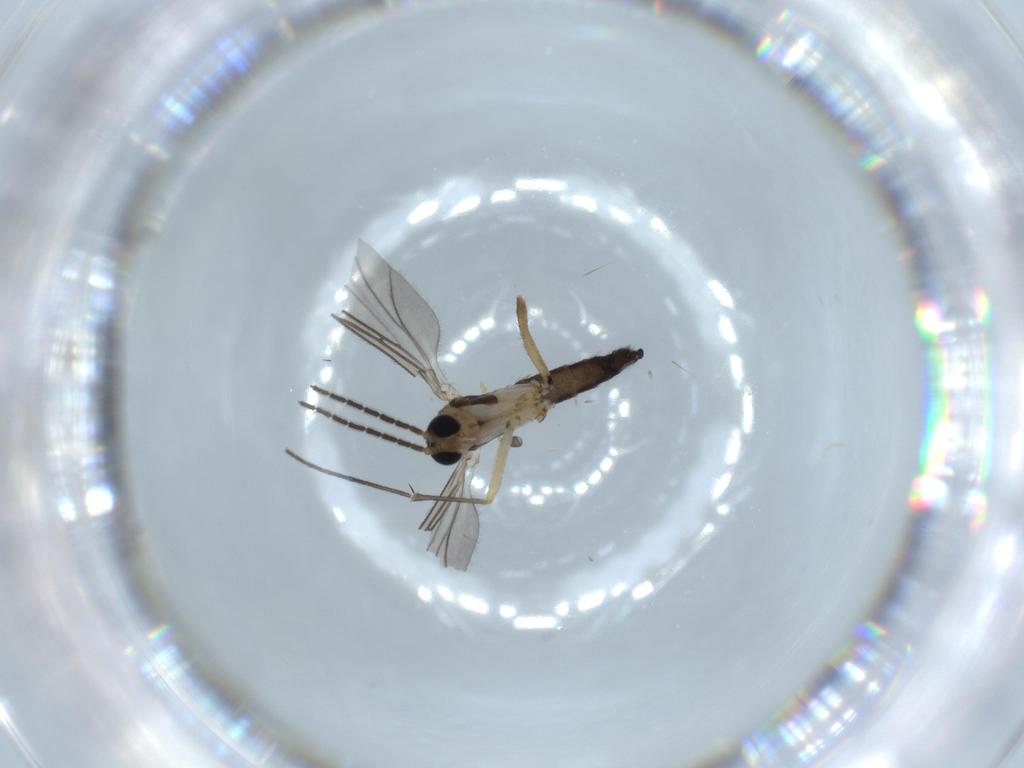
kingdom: Animalia
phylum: Arthropoda
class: Insecta
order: Diptera
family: Sciaridae
